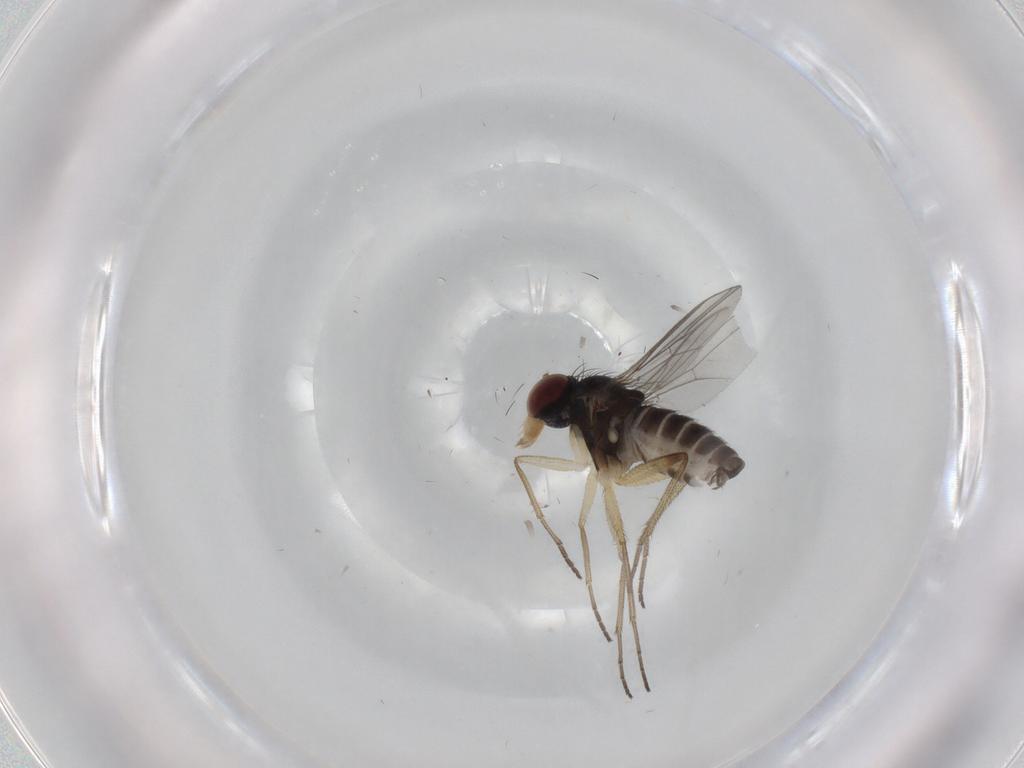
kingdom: Animalia
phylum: Arthropoda
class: Insecta
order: Diptera
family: Dolichopodidae
